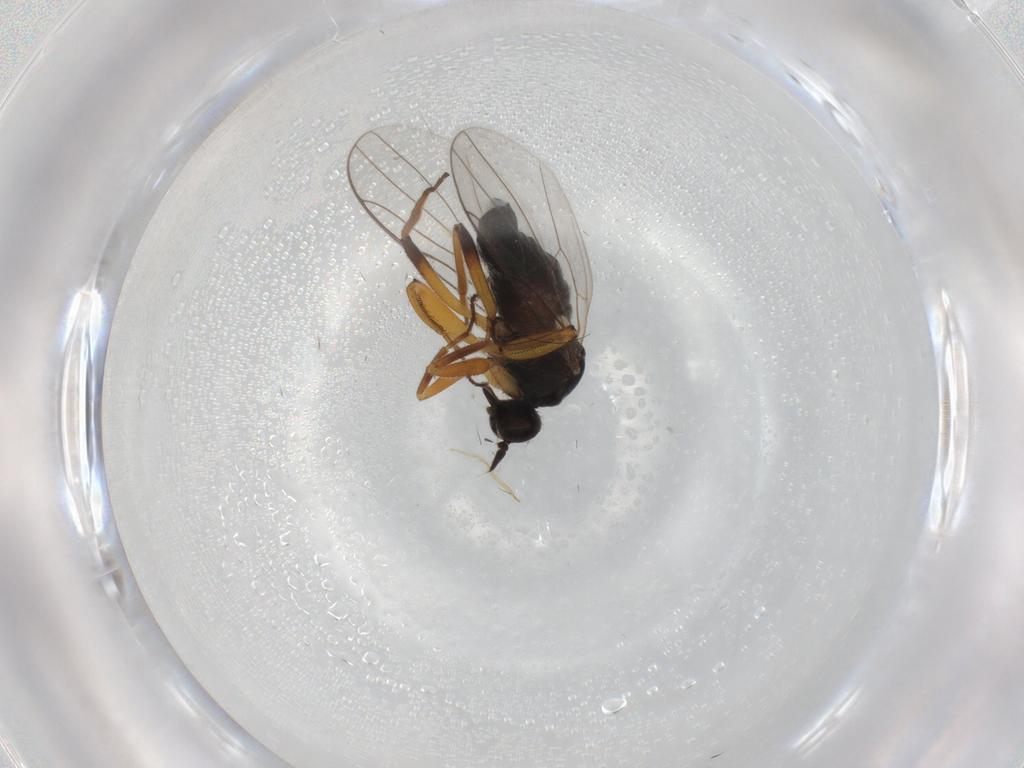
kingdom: Animalia
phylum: Arthropoda
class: Insecta
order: Diptera
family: Hybotidae
